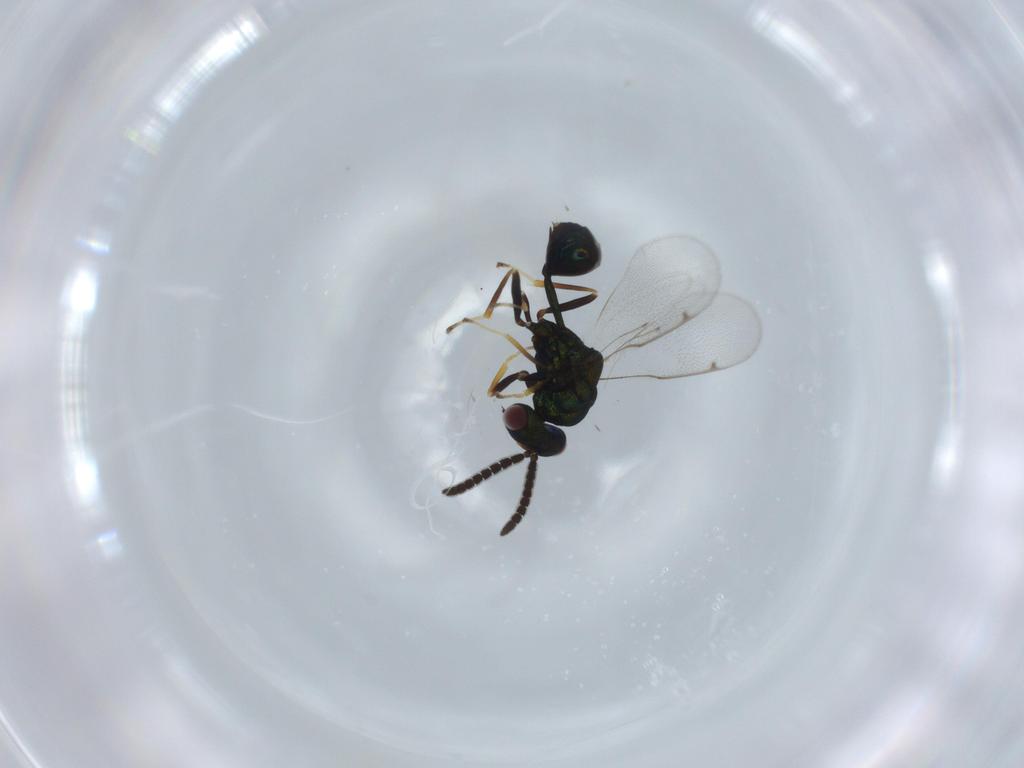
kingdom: Animalia
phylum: Arthropoda
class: Insecta
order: Hymenoptera
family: Eucharitidae
